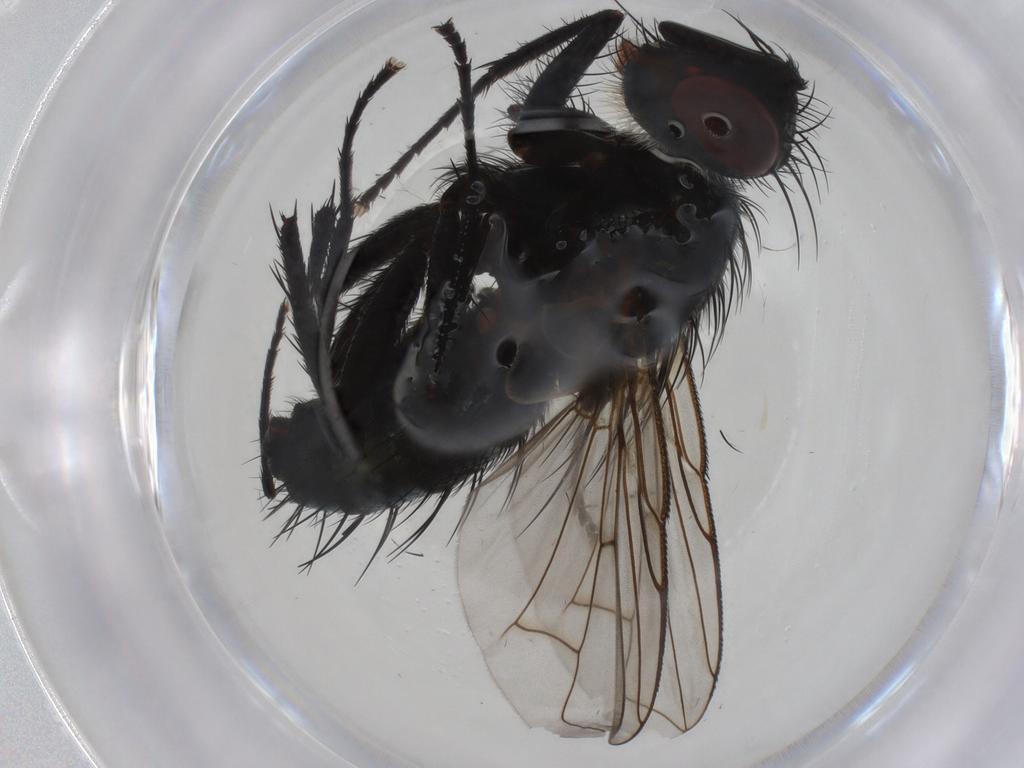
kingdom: Animalia
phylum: Arthropoda
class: Insecta
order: Diptera
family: Tachinidae
